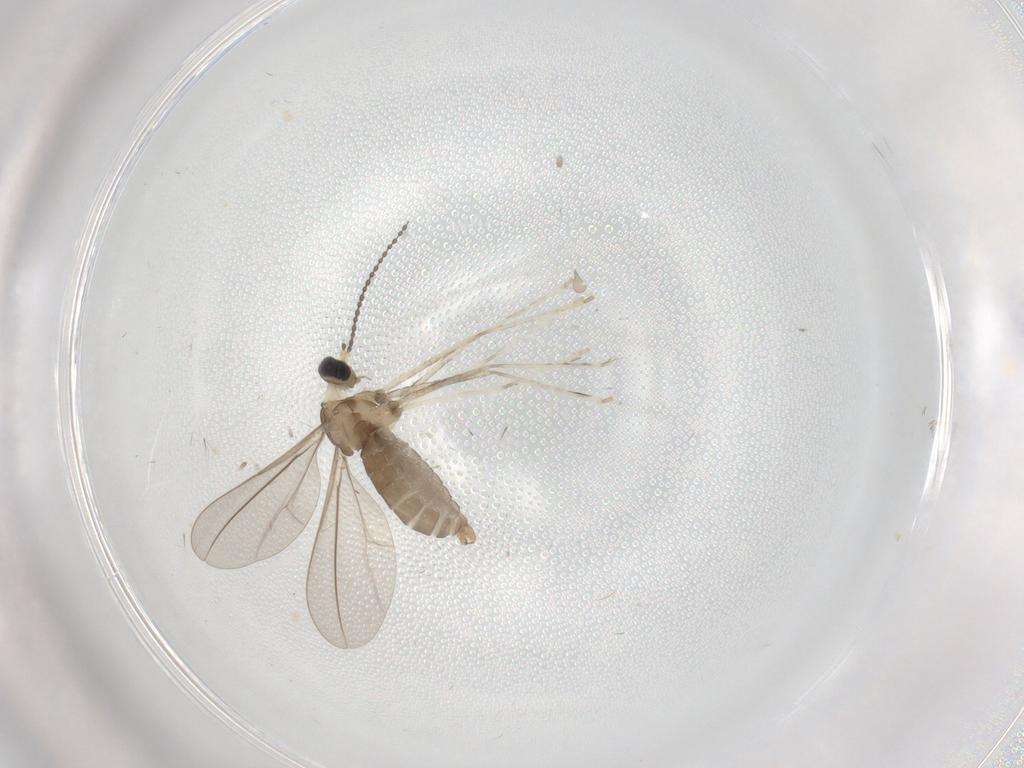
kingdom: Animalia
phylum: Arthropoda
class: Insecta
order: Diptera
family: Cecidomyiidae
